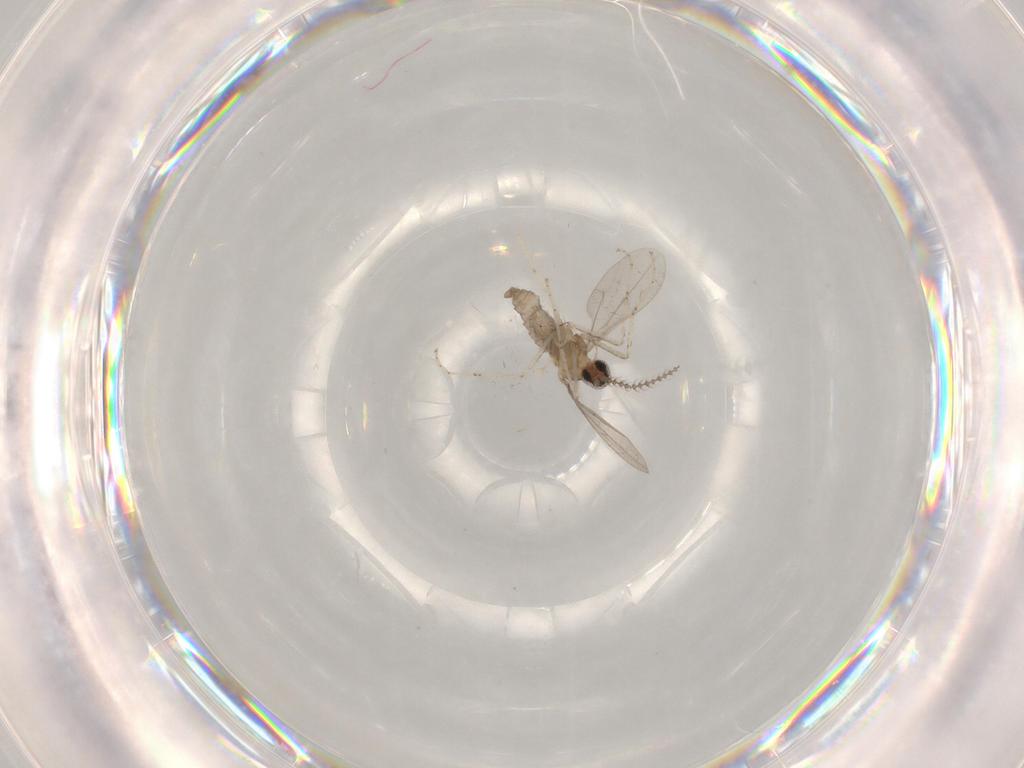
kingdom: Animalia
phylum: Arthropoda
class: Insecta
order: Diptera
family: Cecidomyiidae
